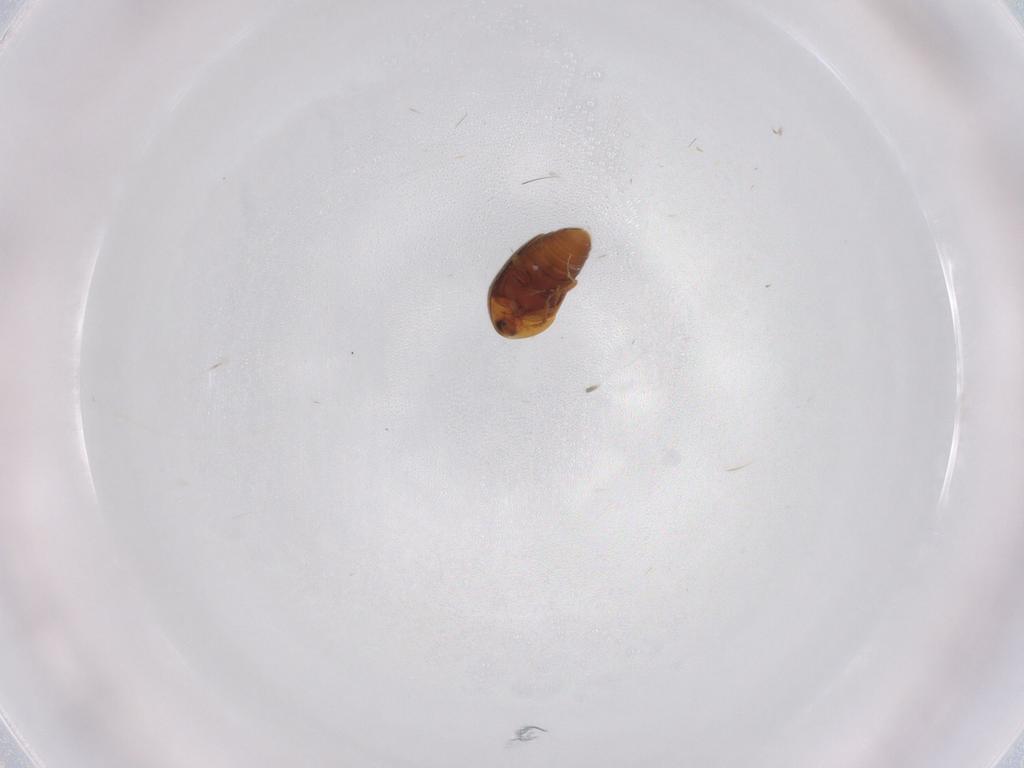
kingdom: Animalia
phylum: Arthropoda
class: Insecta
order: Coleoptera
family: Corylophidae
